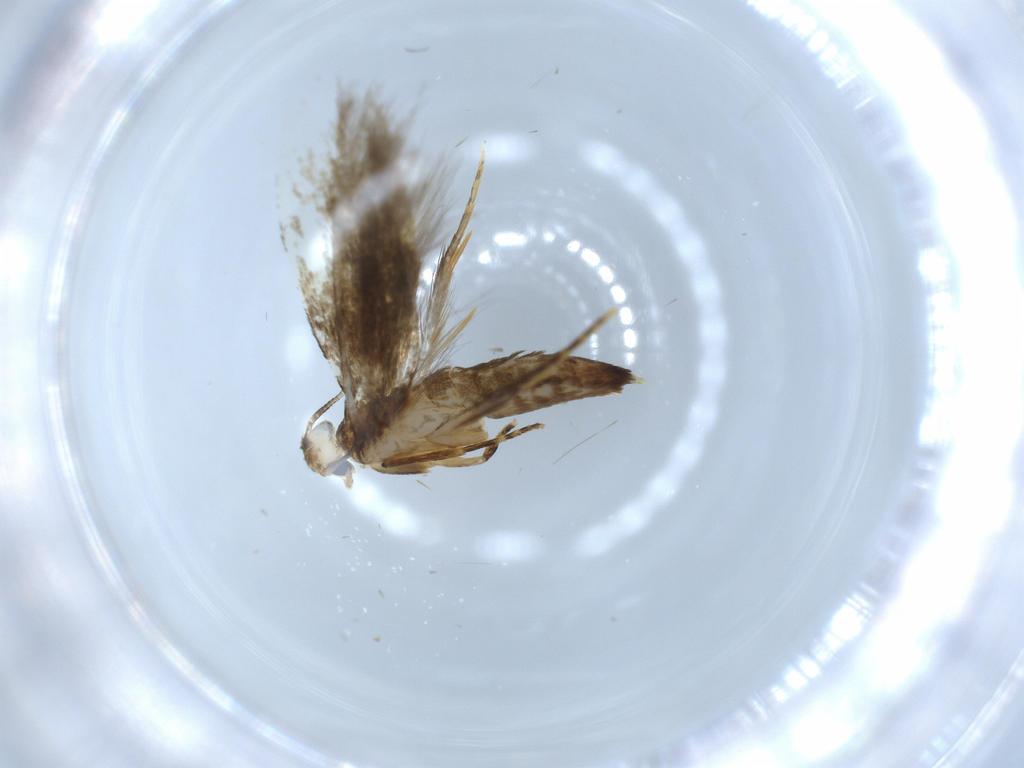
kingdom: Animalia
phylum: Arthropoda
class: Insecta
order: Lepidoptera
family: Tineidae
